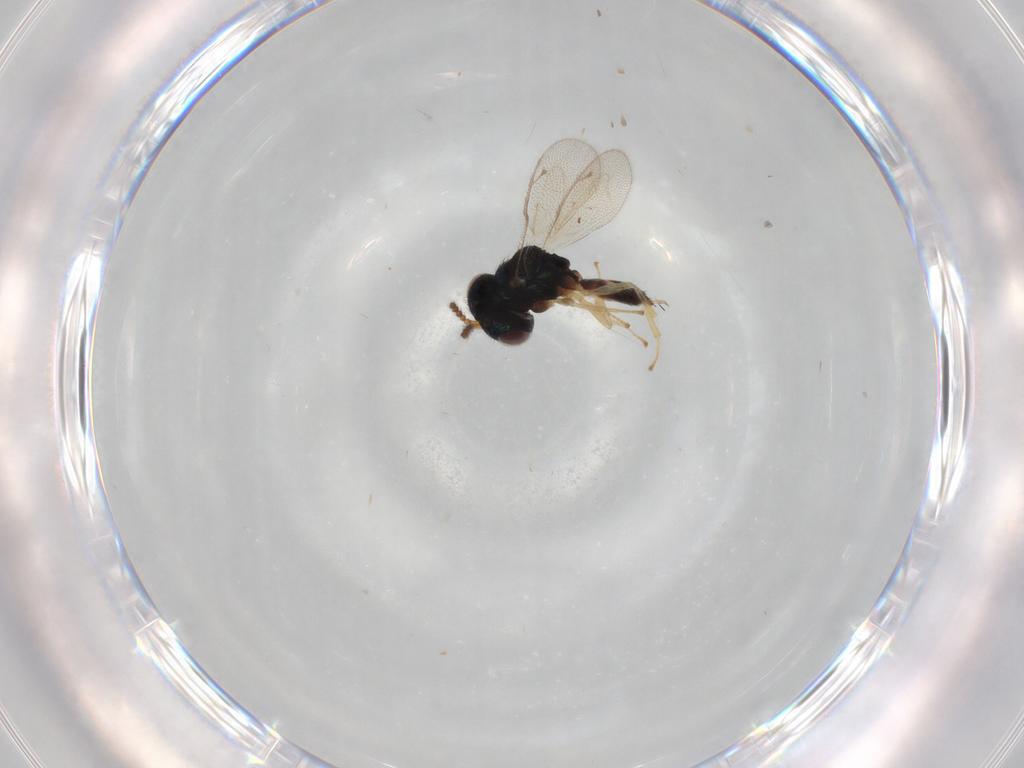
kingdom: Animalia
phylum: Arthropoda
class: Insecta
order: Hymenoptera
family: Pteromalidae
